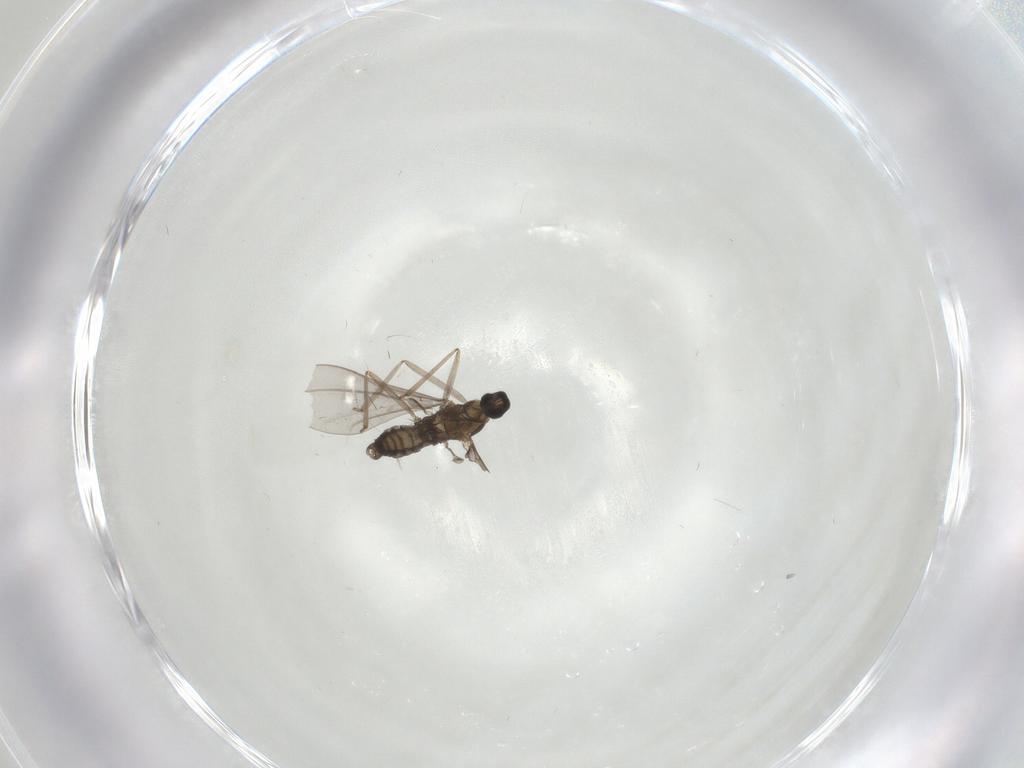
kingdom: Animalia
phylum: Arthropoda
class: Insecta
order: Diptera
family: Cecidomyiidae
